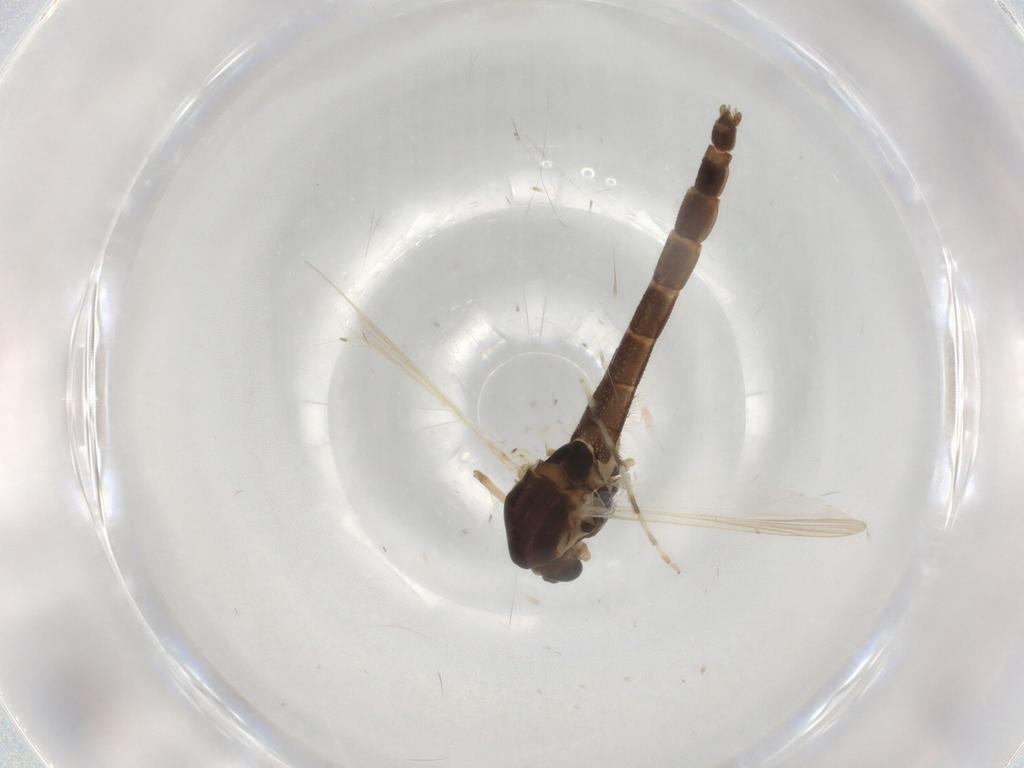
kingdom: Animalia
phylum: Arthropoda
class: Insecta
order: Diptera
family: Chironomidae
